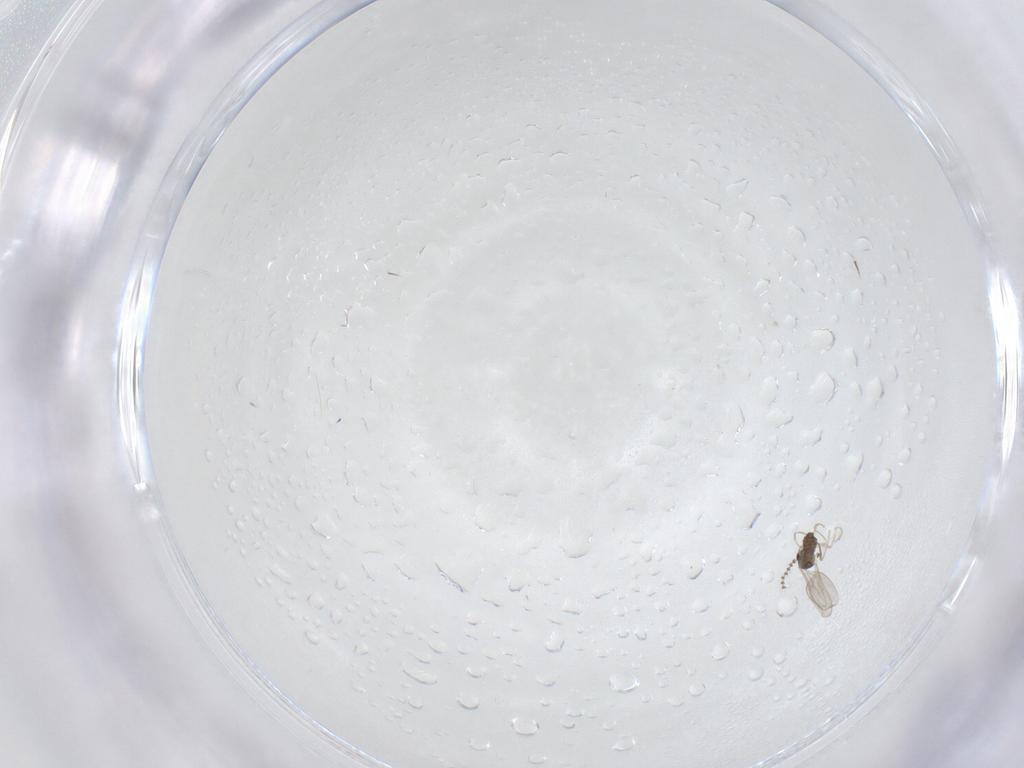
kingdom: Animalia
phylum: Arthropoda
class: Insecta
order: Diptera
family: Cecidomyiidae
